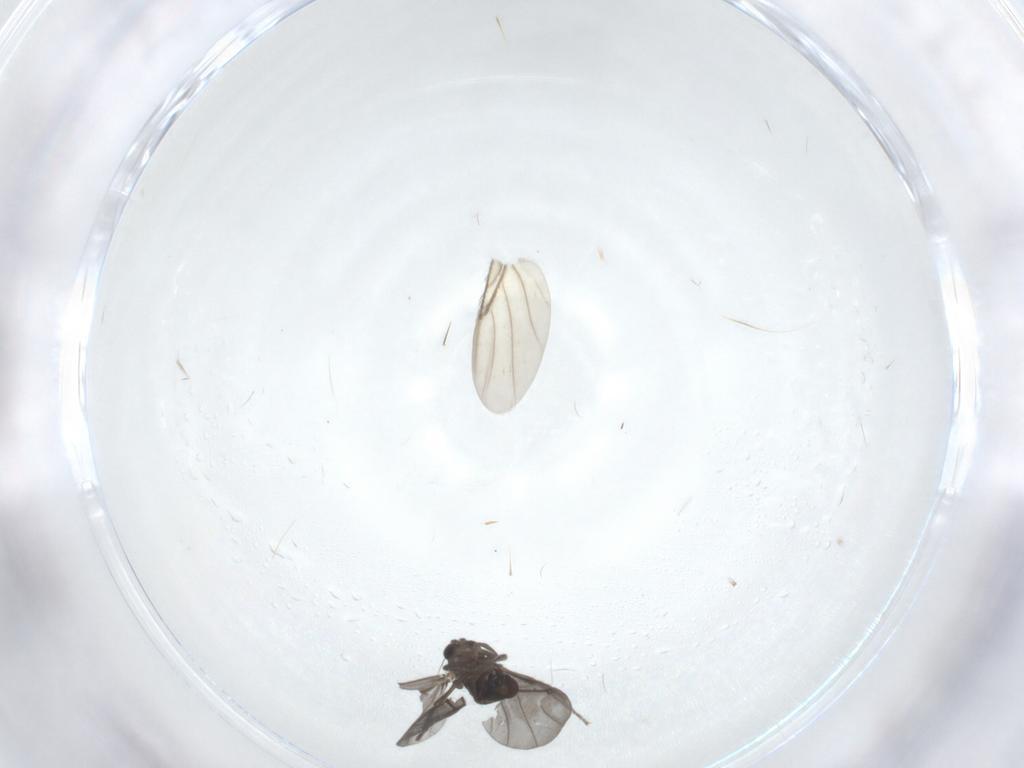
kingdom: Animalia
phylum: Arthropoda
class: Insecta
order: Diptera
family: Phoridae
